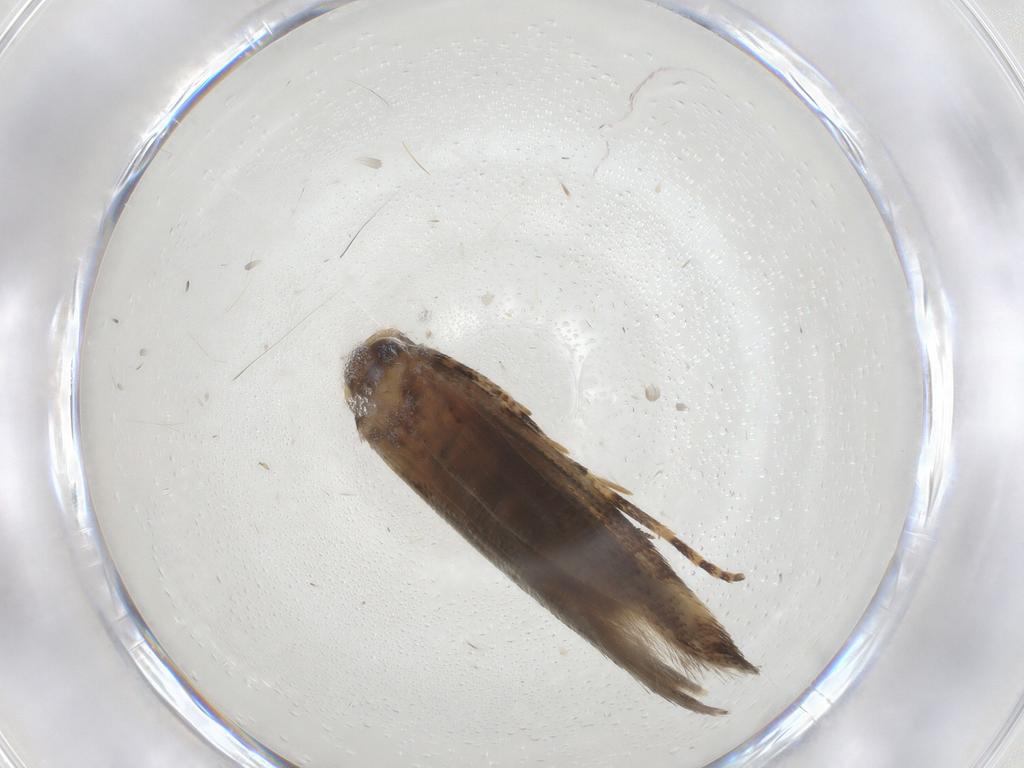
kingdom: Animalia
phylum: Arthropoda
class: Insecta
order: Lepidoptera
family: Gelechiidae
